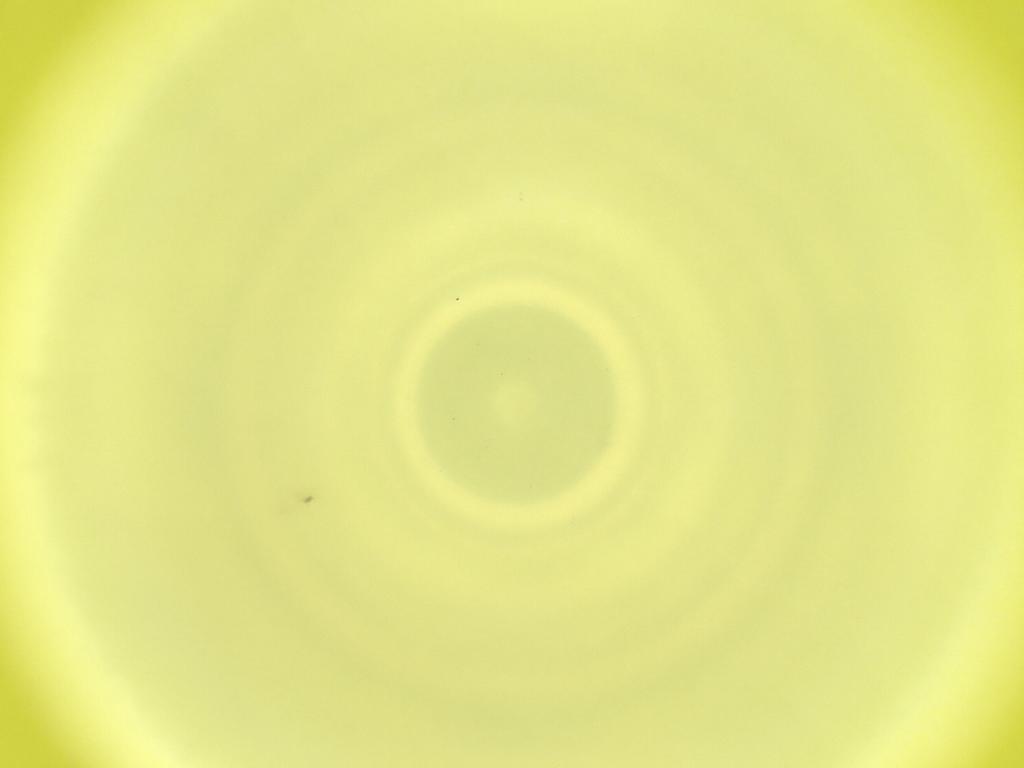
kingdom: Animalia
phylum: Arthropoda
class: Insecta
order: Diptera
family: Cecidomyiidae
